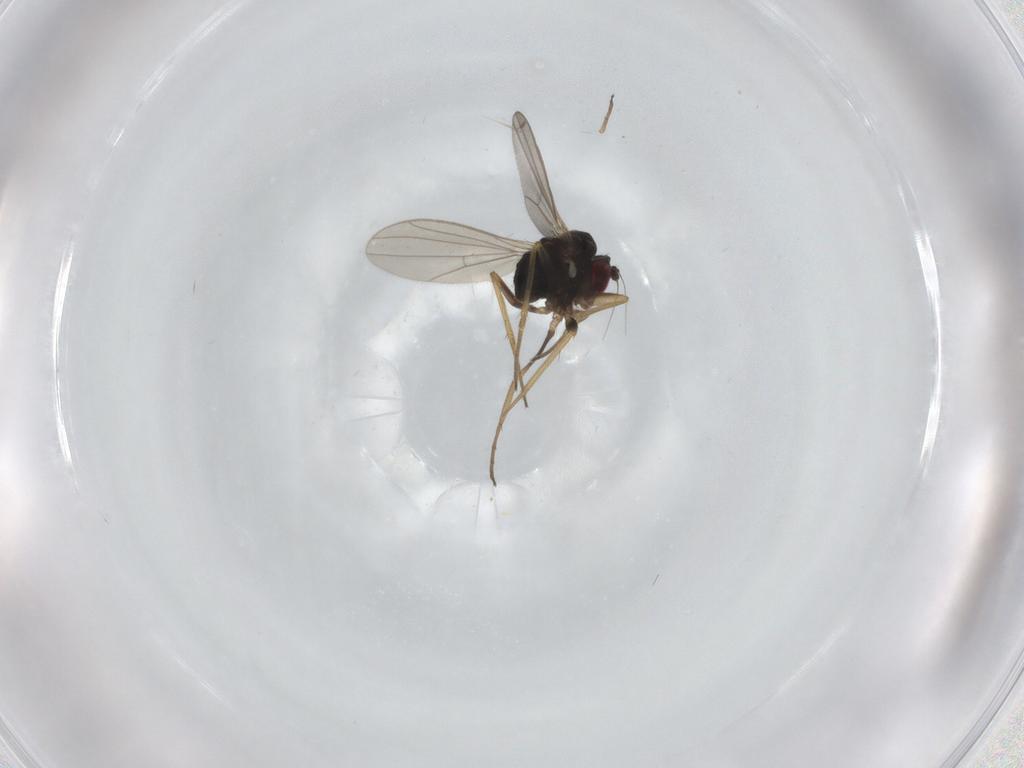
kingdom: Animalia
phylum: Arthropoda
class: Insecta
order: Diptera
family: Dolichopodidae
